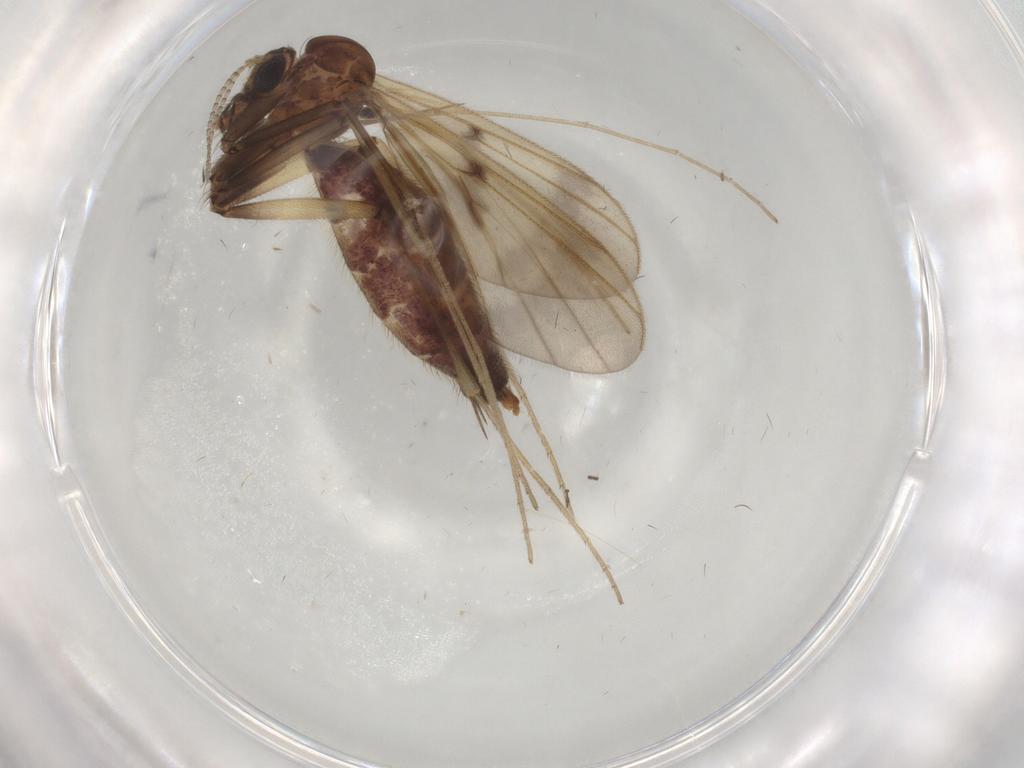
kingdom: Animalia
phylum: Arthropoda
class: Insecta
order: Diptera
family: Mycetophilidae
